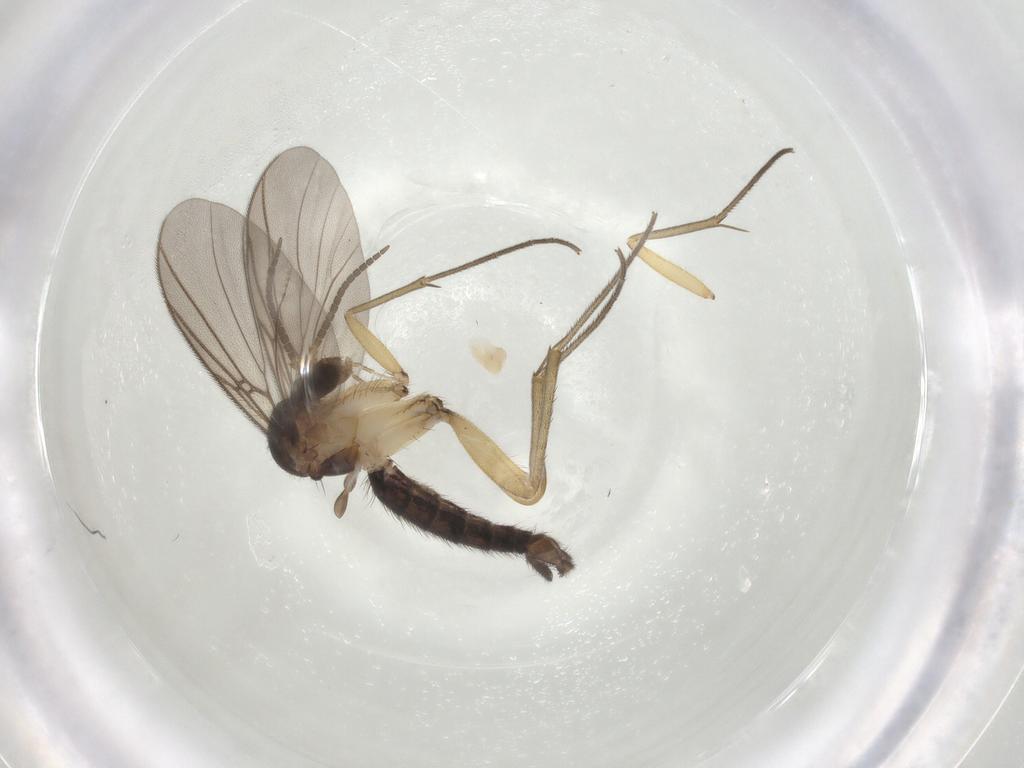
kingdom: Animalia
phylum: Arthropoda
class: Insecta
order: Diptera
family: Mycetophilidae
